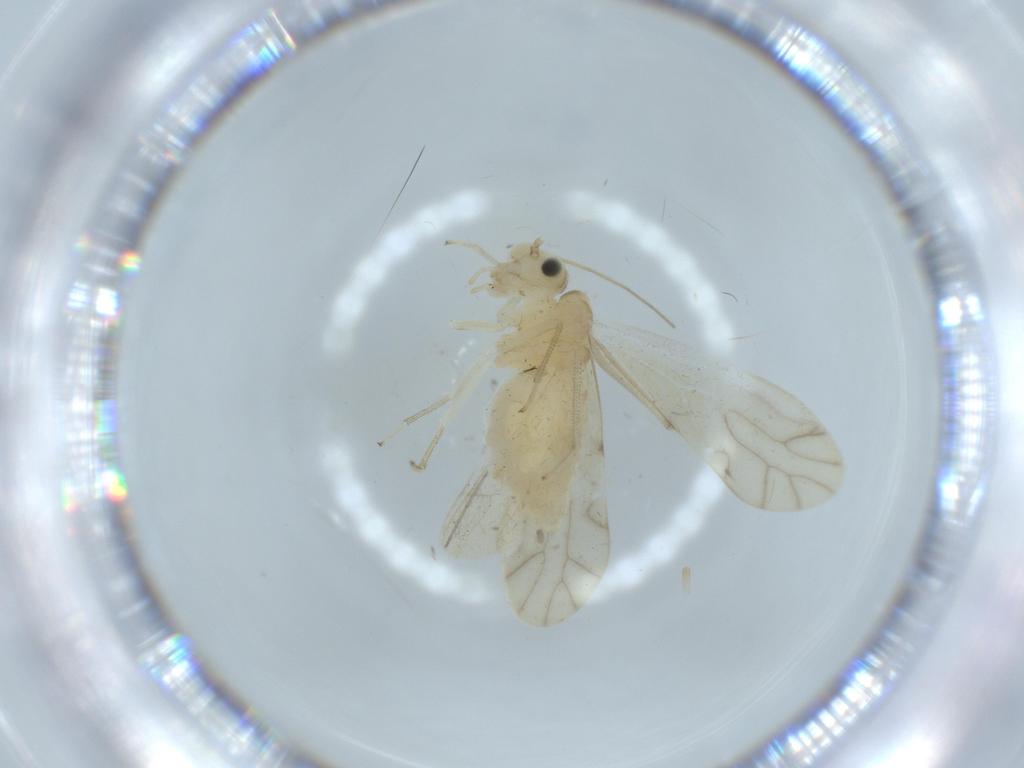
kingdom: Animalia
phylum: Arthropoda
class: Insecta
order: Psocodea
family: Caeciliusidae
